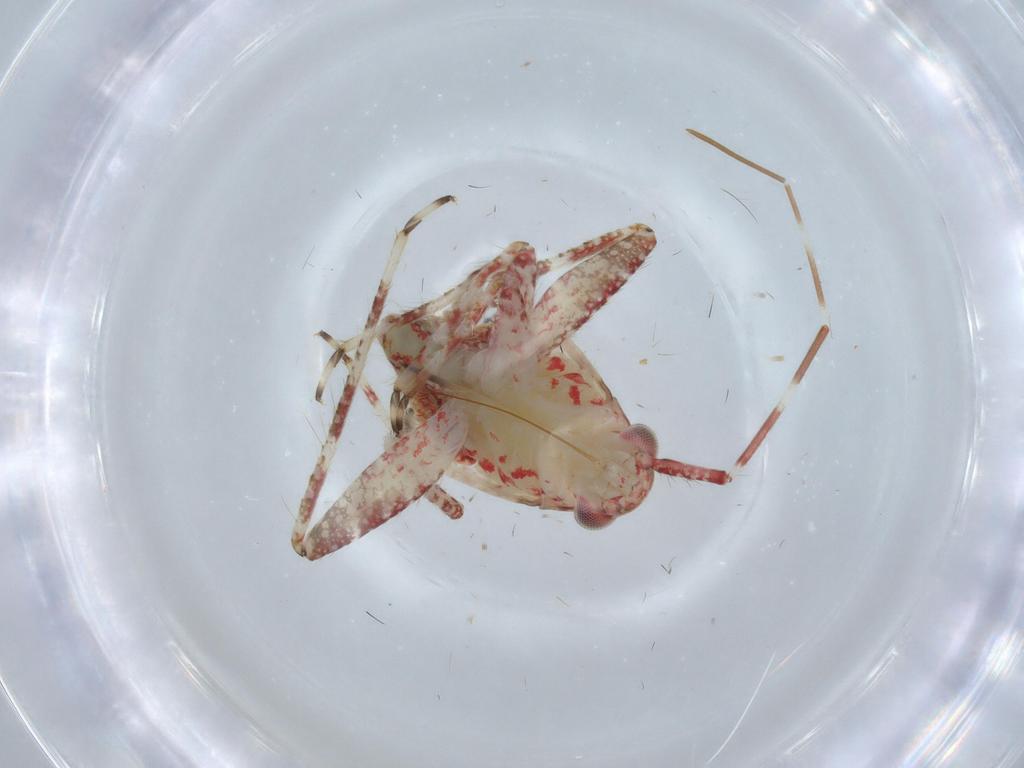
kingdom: Animalia
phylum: Arthropoda
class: Insecta
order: Hemiptera
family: Miridae
